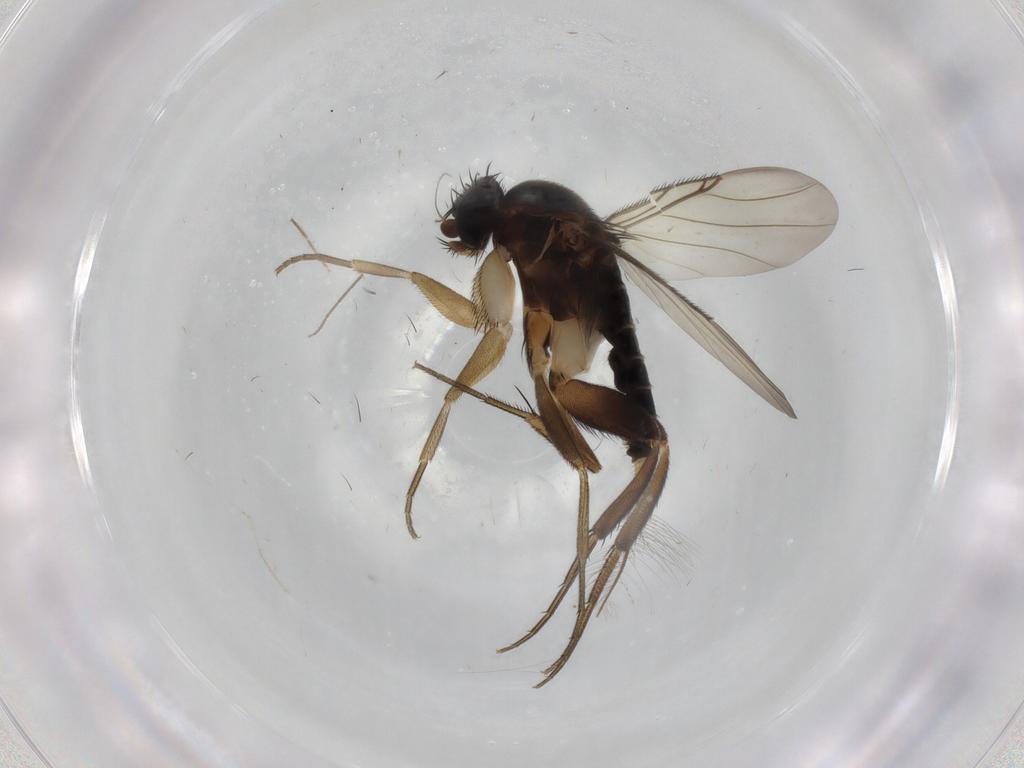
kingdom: Animalia
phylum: Arthropoda
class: Insecta
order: Diptera
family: Phoridae
